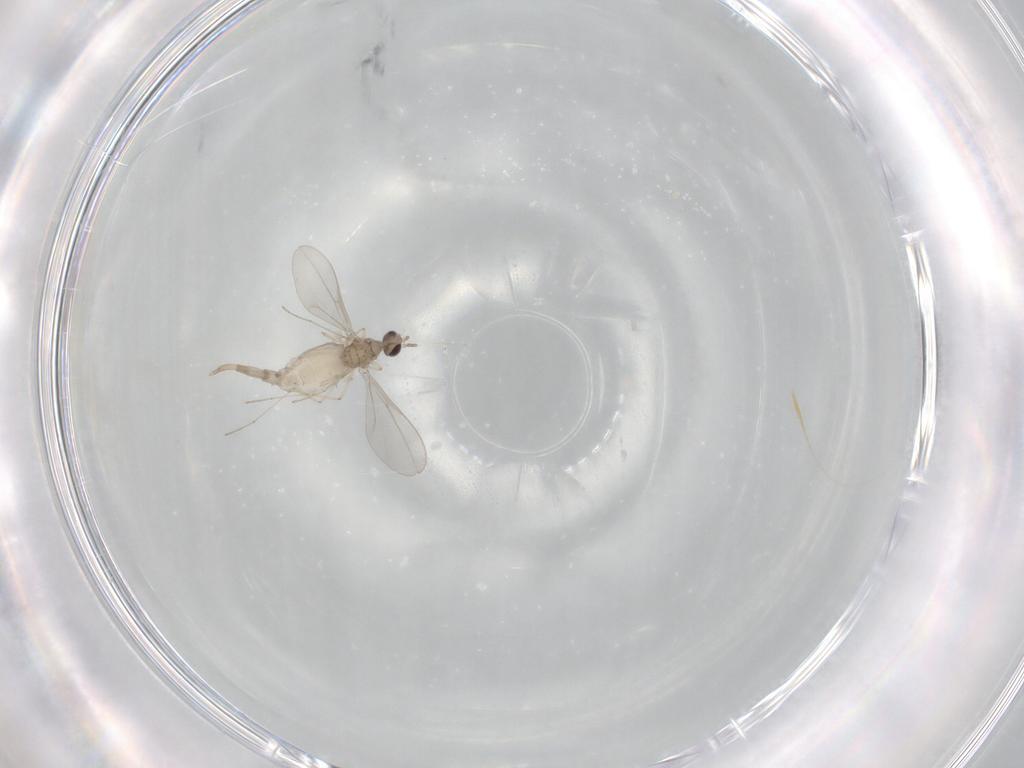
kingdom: Animalia
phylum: Arthropoda
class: Insecta
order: Diptera
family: Cecidomyiidae
